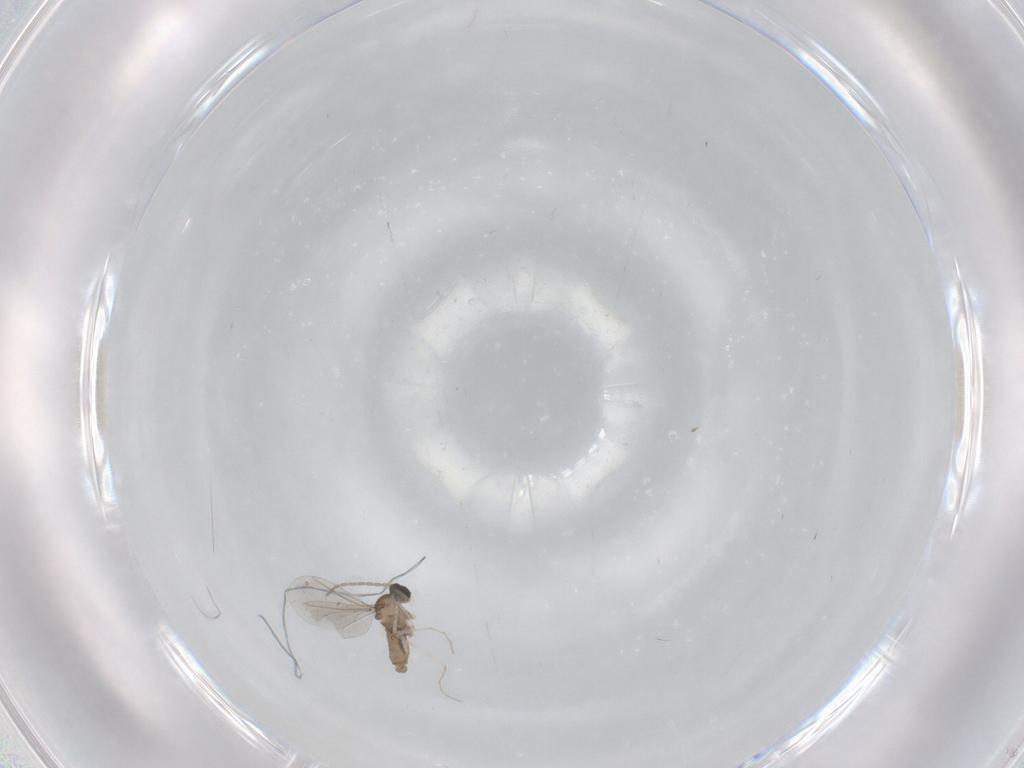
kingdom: Animalia
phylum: Arthropoda
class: Insecta
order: Diptera
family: Cecidomyiidae
